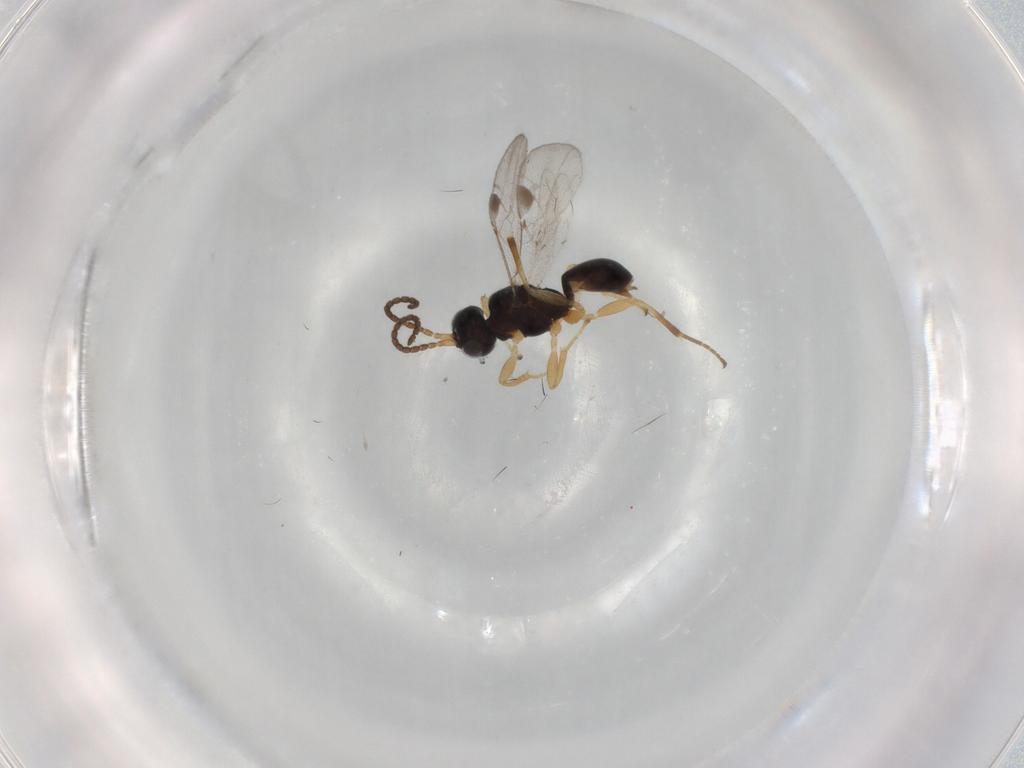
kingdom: Animalia
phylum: Arthropoda
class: Insecta
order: Hymenoptera
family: Braconidae
